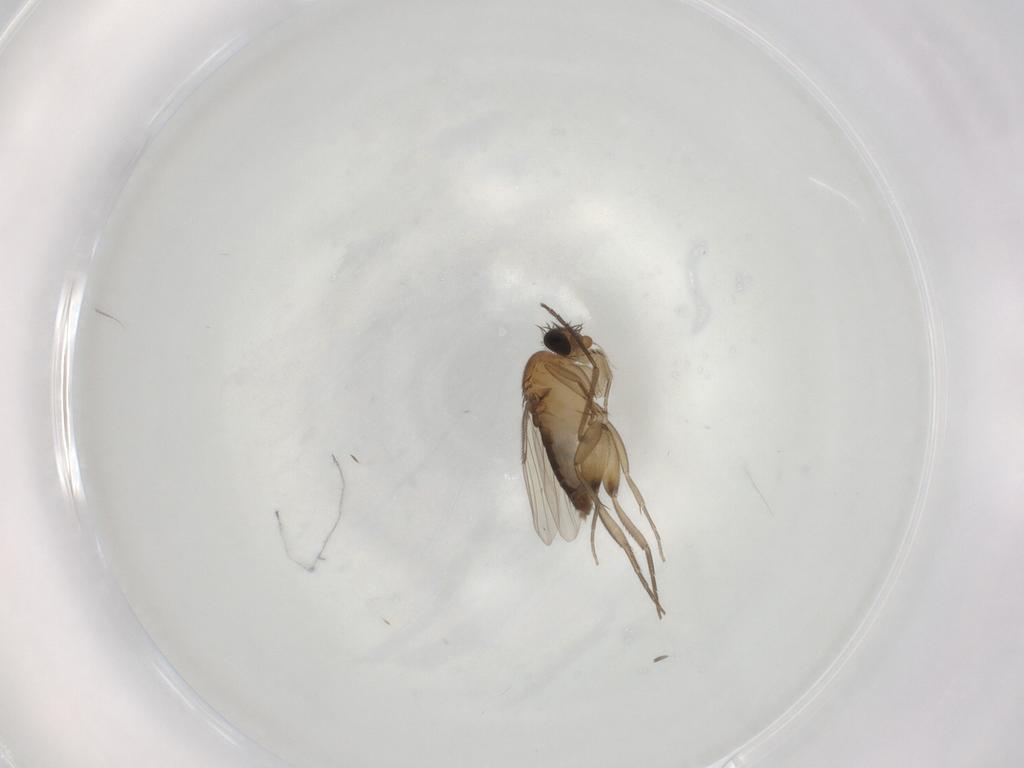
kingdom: Animalia
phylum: Arthropoda
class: Insecta
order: Diptera
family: Phoridae
